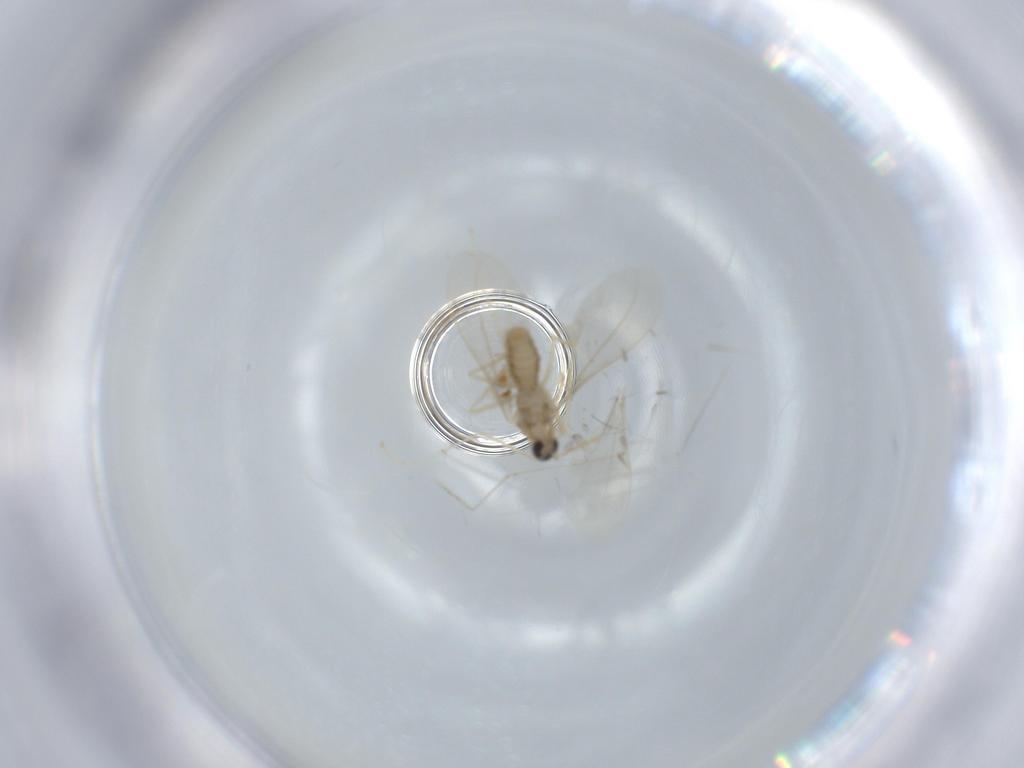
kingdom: Animalia
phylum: Arthropoda
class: Insecta
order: Diptera
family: Cecidomyiidae
